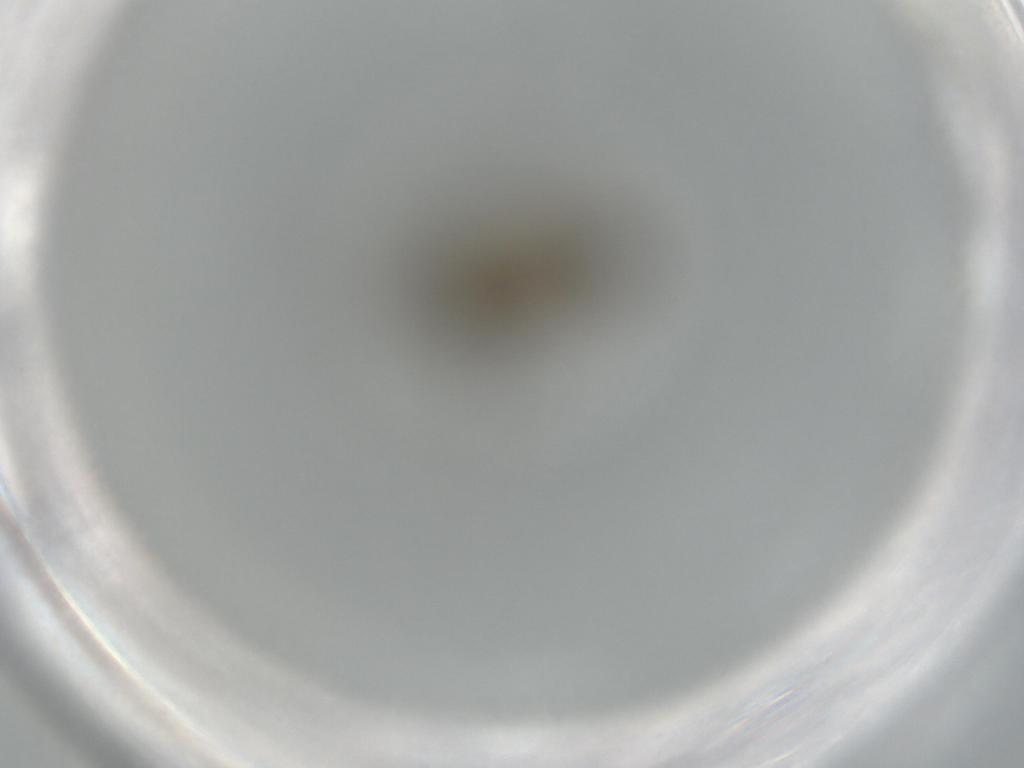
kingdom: Animalia
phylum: Arthropoda
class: Insecta
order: Diptera
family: Phoridae
